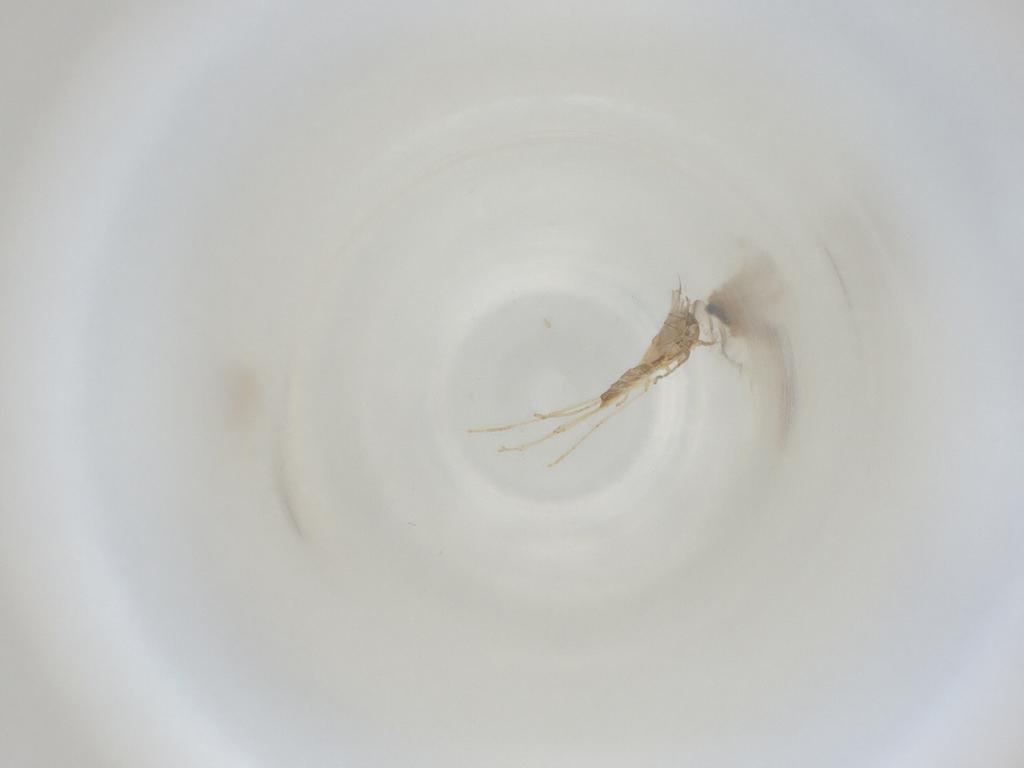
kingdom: Animalia
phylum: Arthropoda
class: Insecta
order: Diptera
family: Cecidomyiidae
